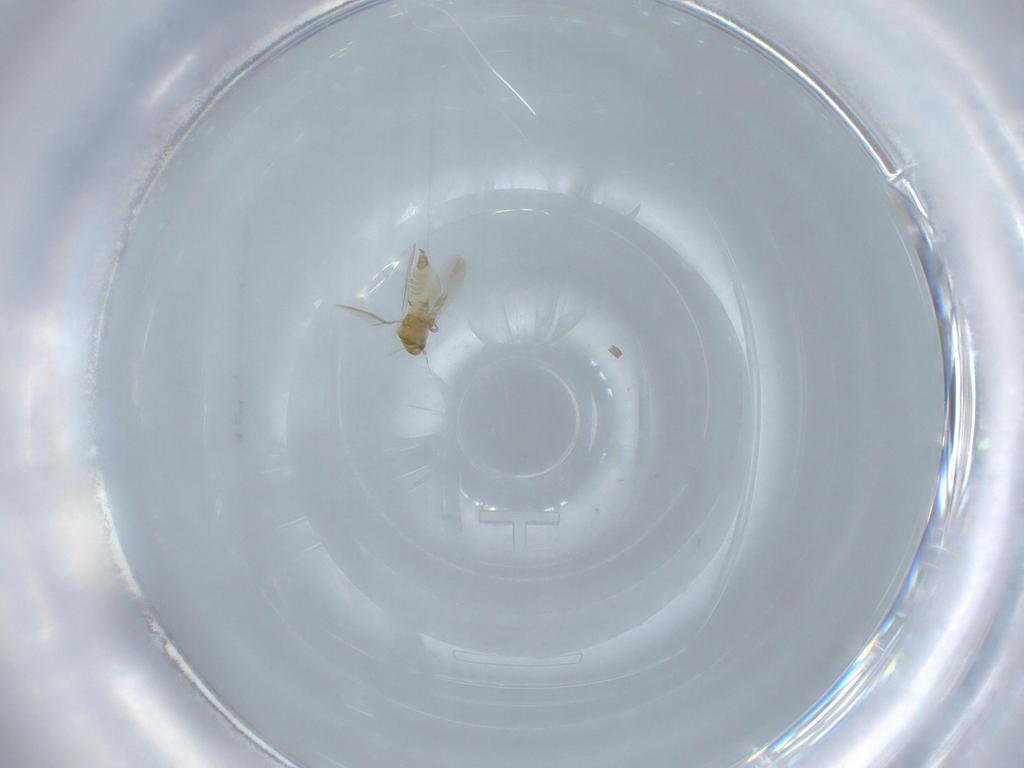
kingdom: Animalia
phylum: Arthropoda
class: Insecta
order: Hemiptera
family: Aleyrodidae
